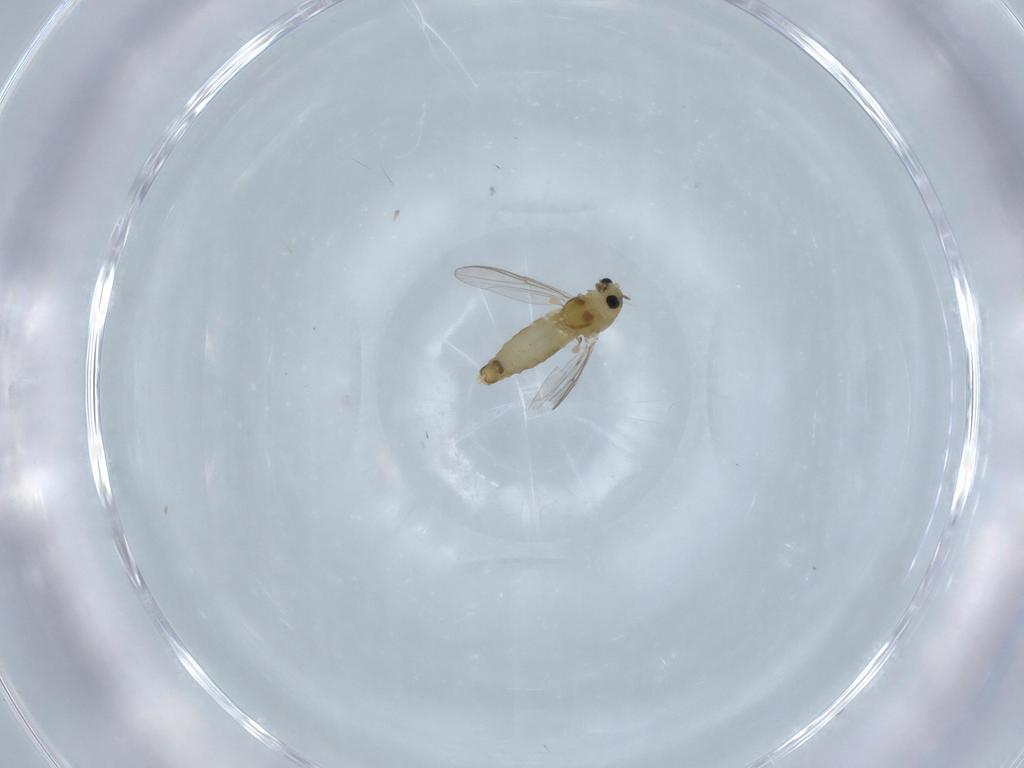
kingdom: Animalia
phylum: Arthropoda
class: Insecta
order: Diptera
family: Chironomidae
